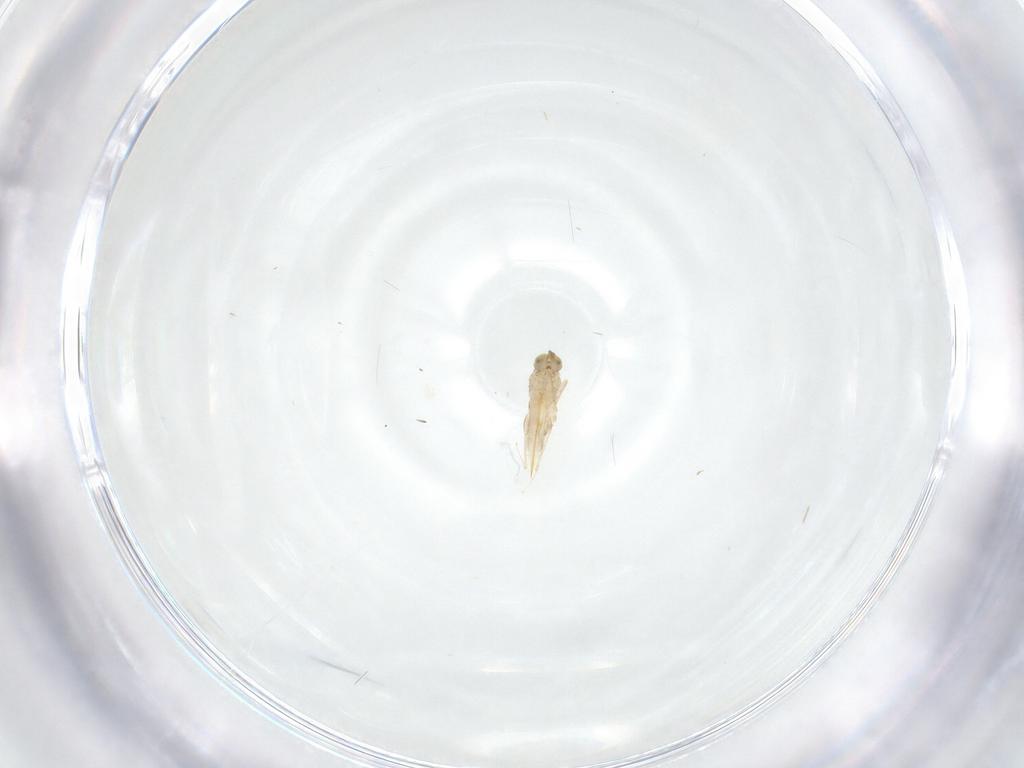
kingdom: Animalia
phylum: Arthropoda
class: Insecta
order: Hymenoptera
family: Aphelinidae
